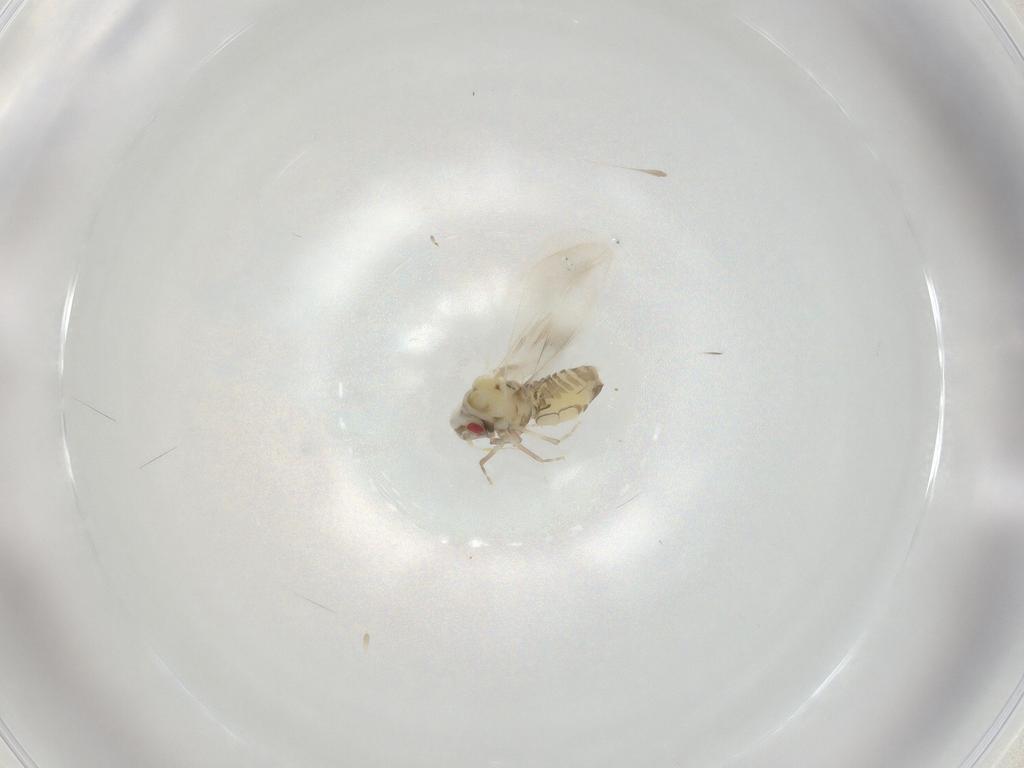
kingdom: Animalia
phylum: Arthropoda
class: Insecta
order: Hemiptera
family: Aleyrodidae
